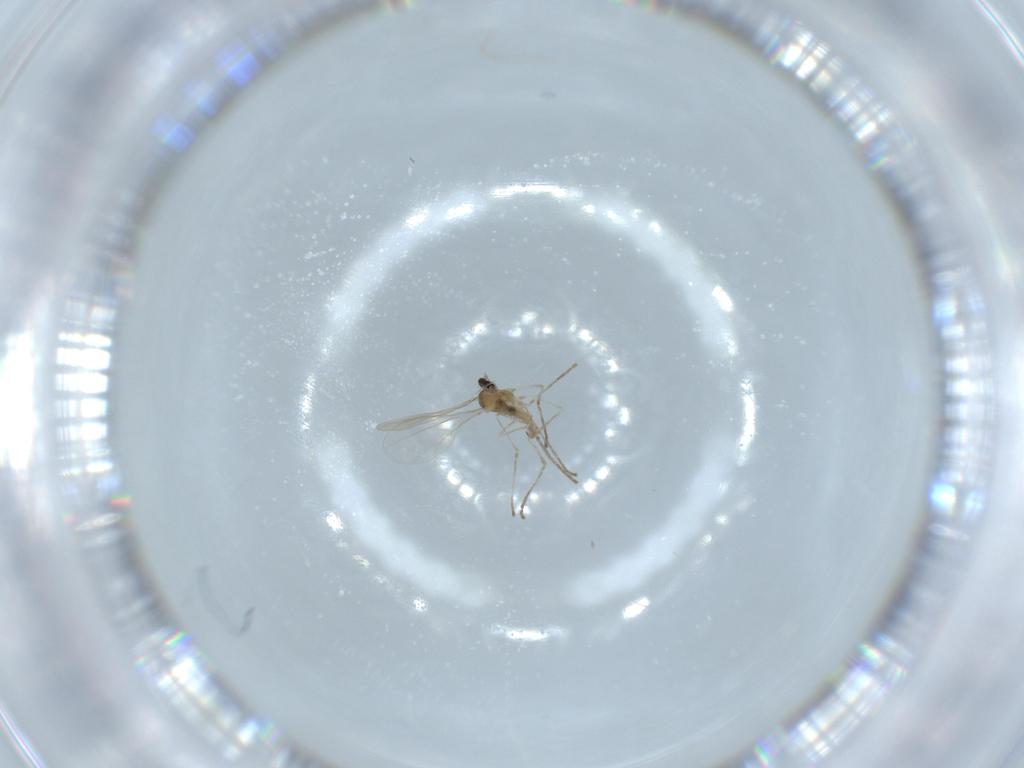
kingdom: Animalia
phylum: Arthropoda
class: Insecta
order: Diptera
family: Cecidomyiidae
